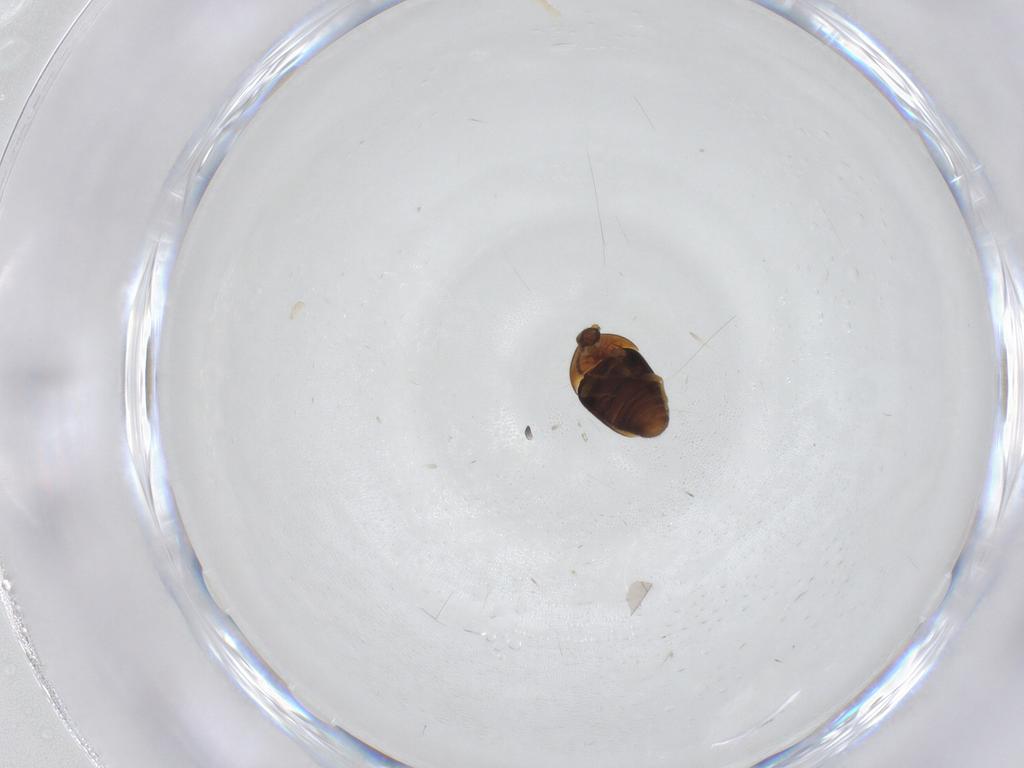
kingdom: Animalia
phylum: Arthropoda
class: Insecta
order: Coleoptera
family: Corylophidae
